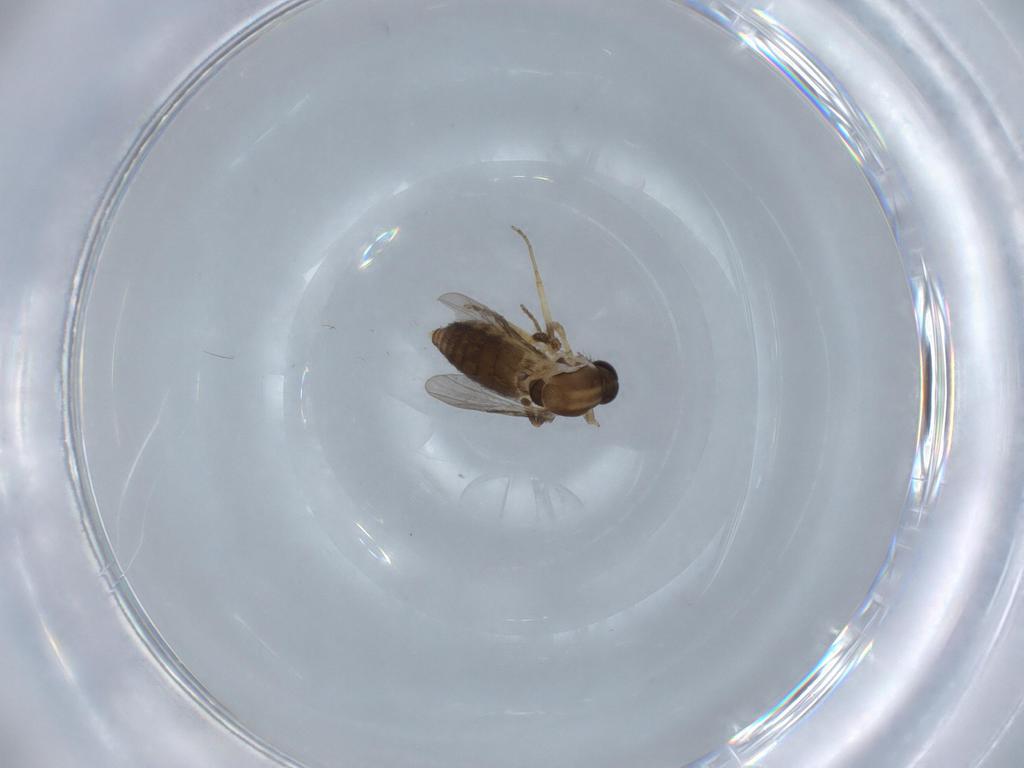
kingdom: Animalia
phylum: Arthropoda
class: Insecta
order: Diptera
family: Ceratopogonidae
